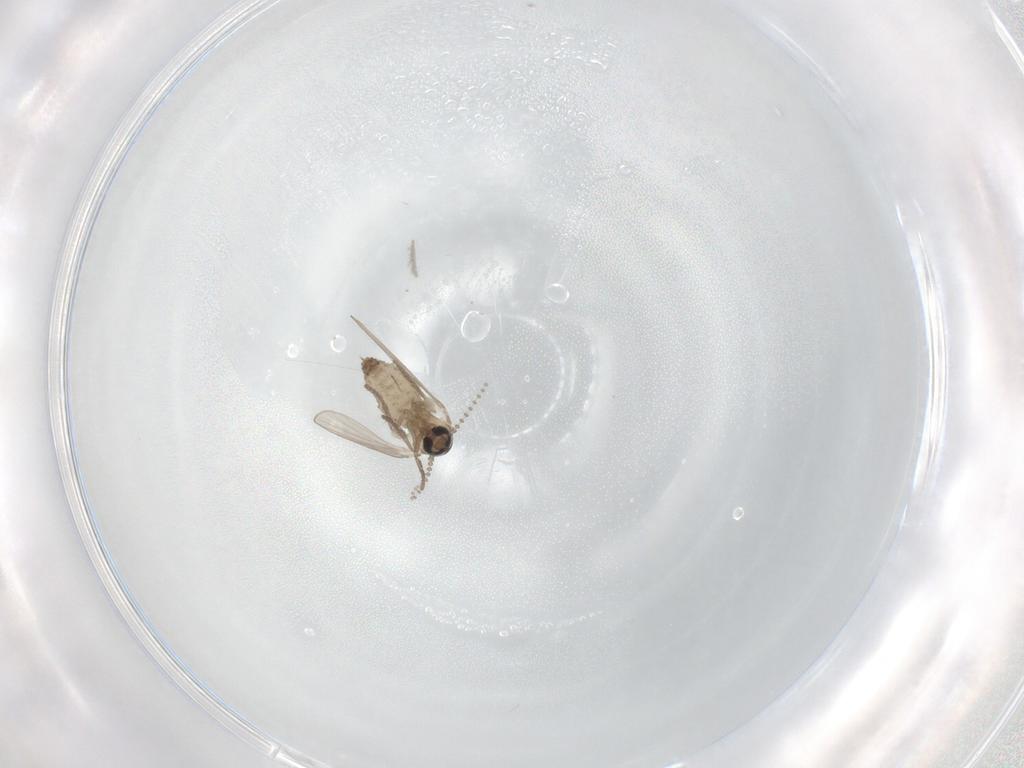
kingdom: Animalia
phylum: Arthropoda
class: Insecta
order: Diptera
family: Psychodidae
